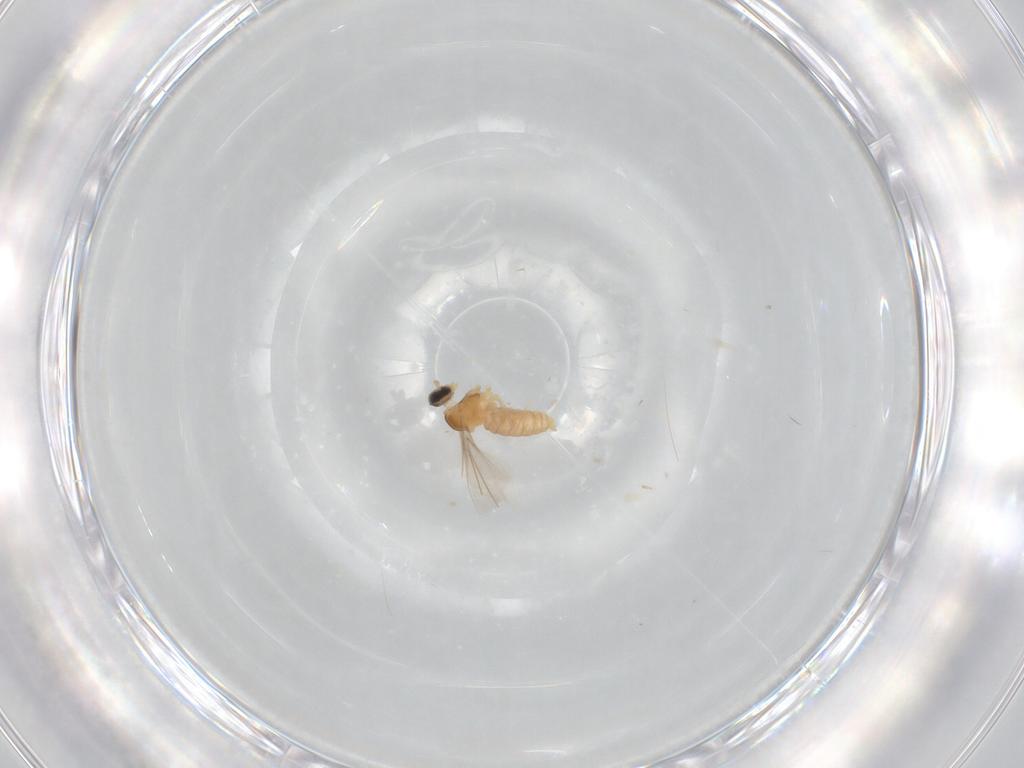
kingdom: Animalia
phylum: Arthropoda
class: Insecta
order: Diptera
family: Cecidomyiidae
